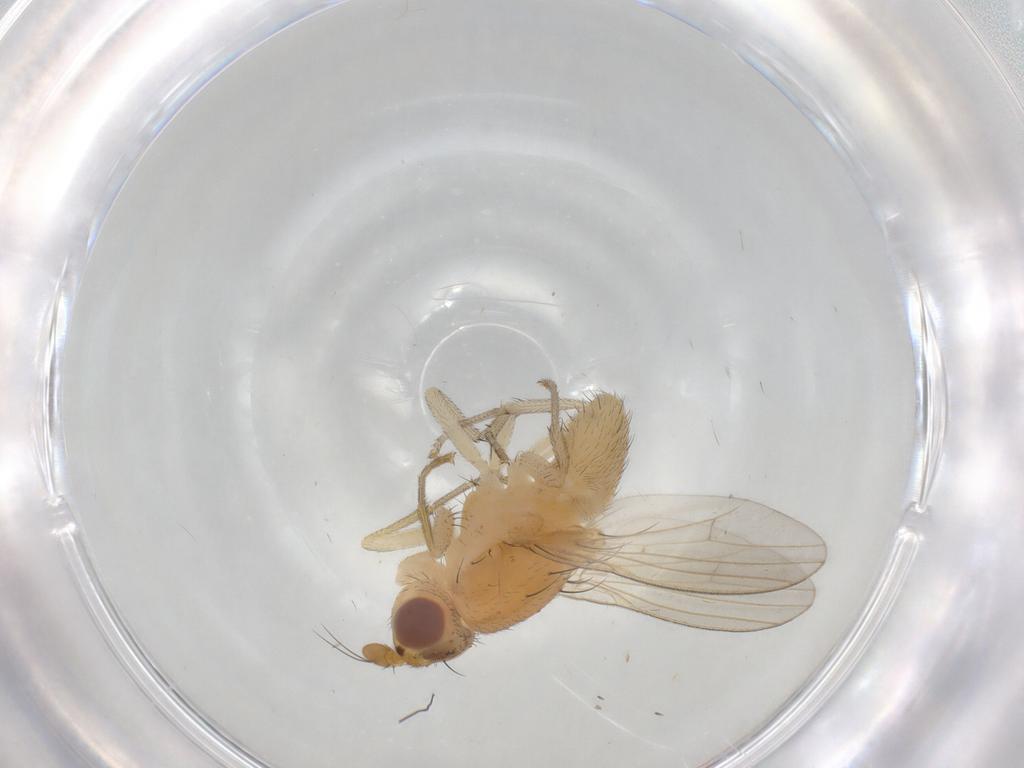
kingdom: Animalia
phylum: Arthropoda
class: Insecta
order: Diptera
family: Lauxaniidae
